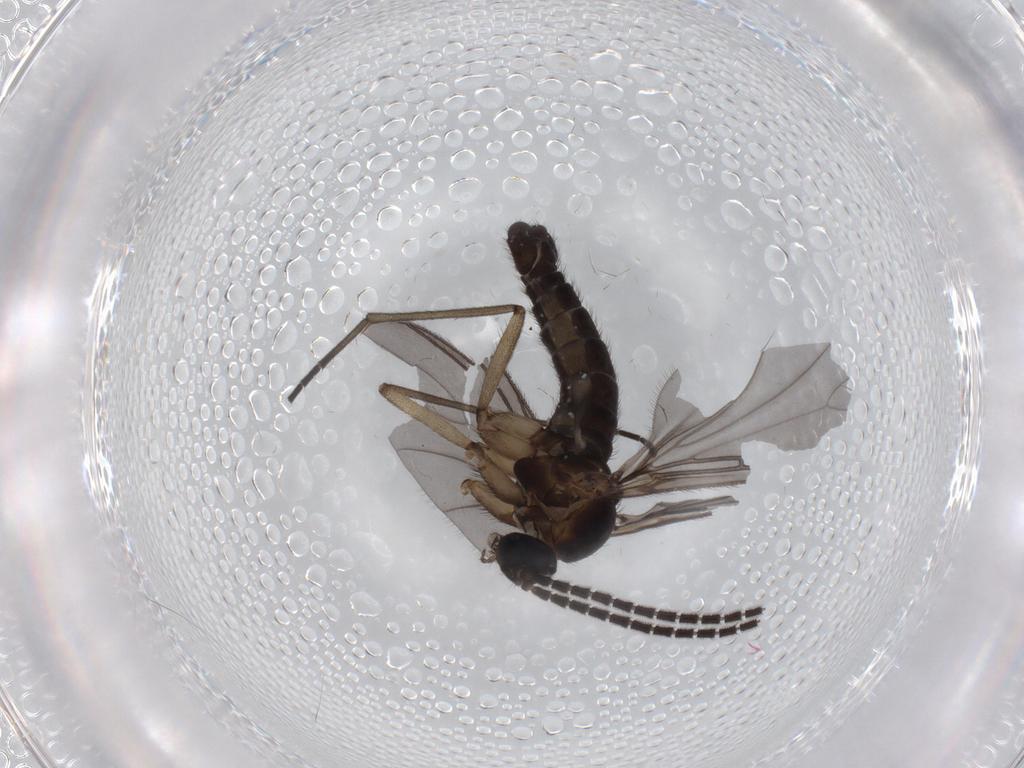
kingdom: Animalia
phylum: Arthropoda
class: Insecta
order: Diptera
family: Sciaridae
